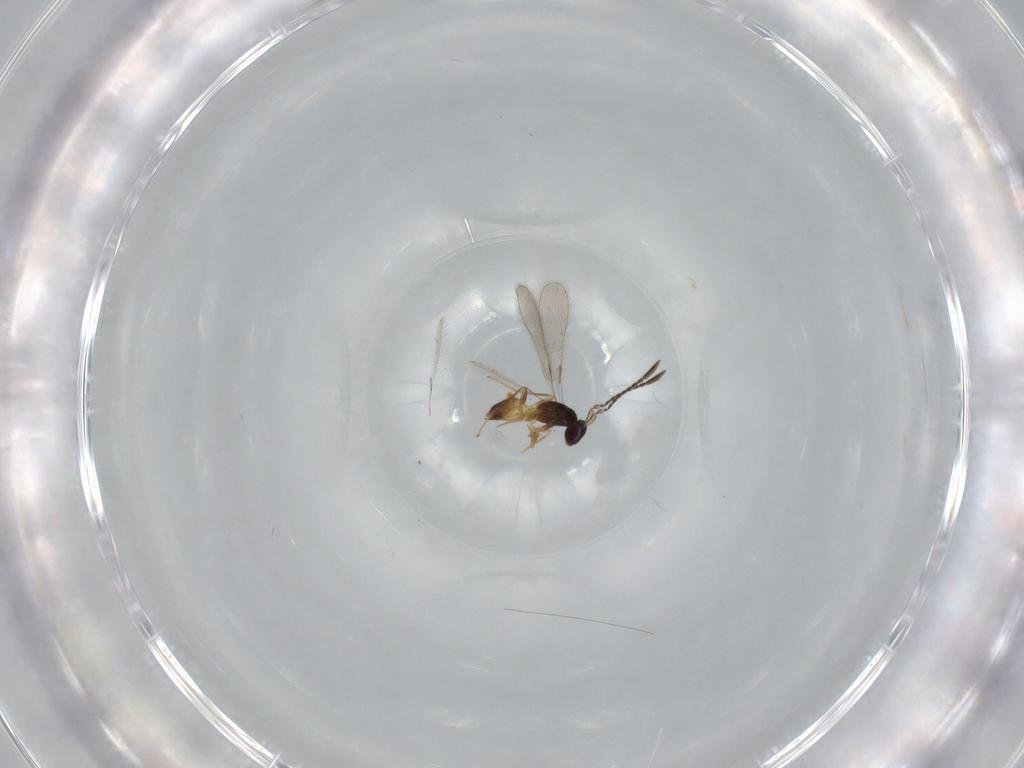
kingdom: Animalia
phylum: Arthropoda
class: Insecta
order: Hymenoptera
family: Mymaridae
